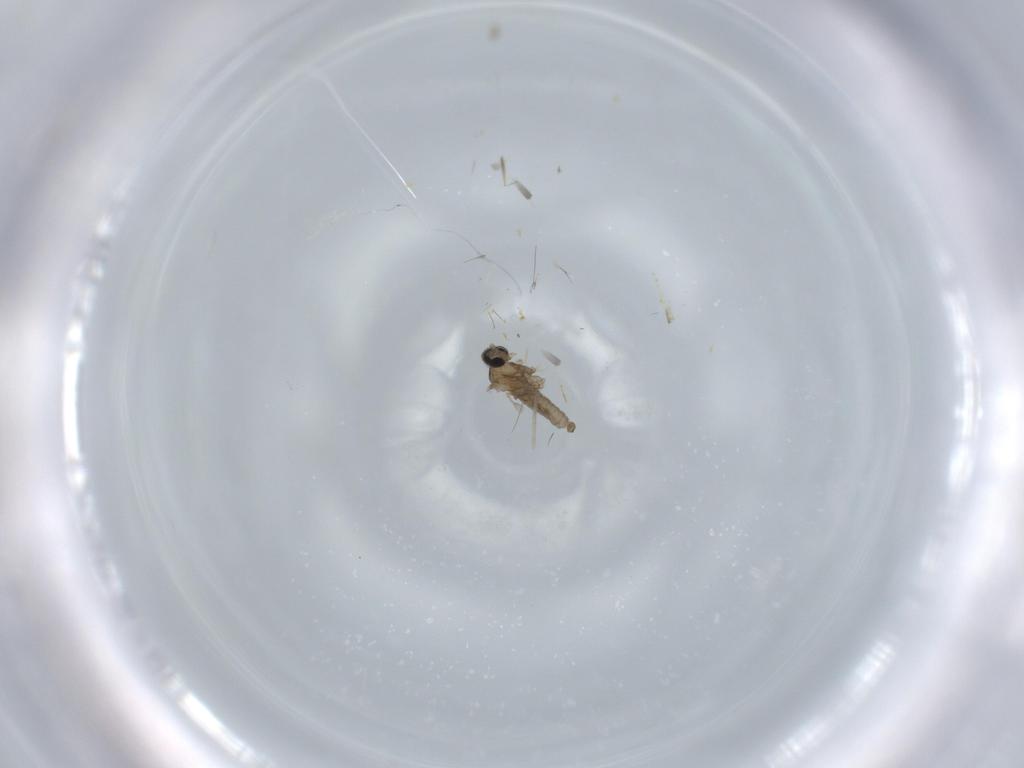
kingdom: Animalia
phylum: Arthropoda
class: Insecta
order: Diptera
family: Cecidomyiidae
